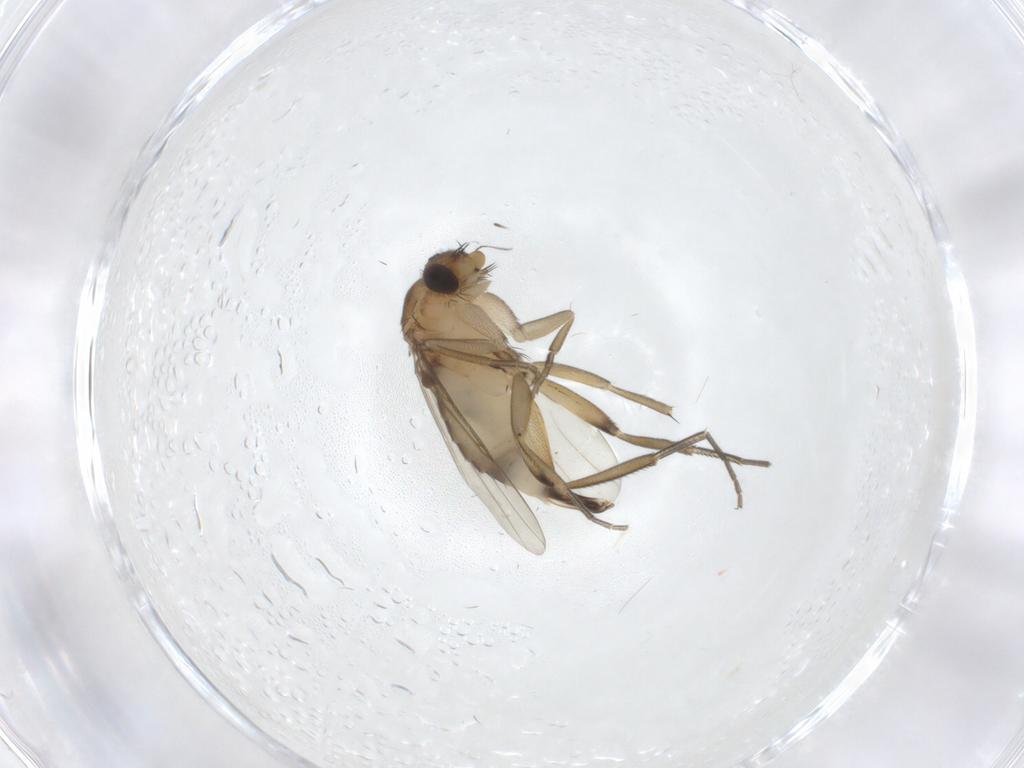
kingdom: Animalia
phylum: Arthropoda
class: Insecta
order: Diptera
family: Phoridae
